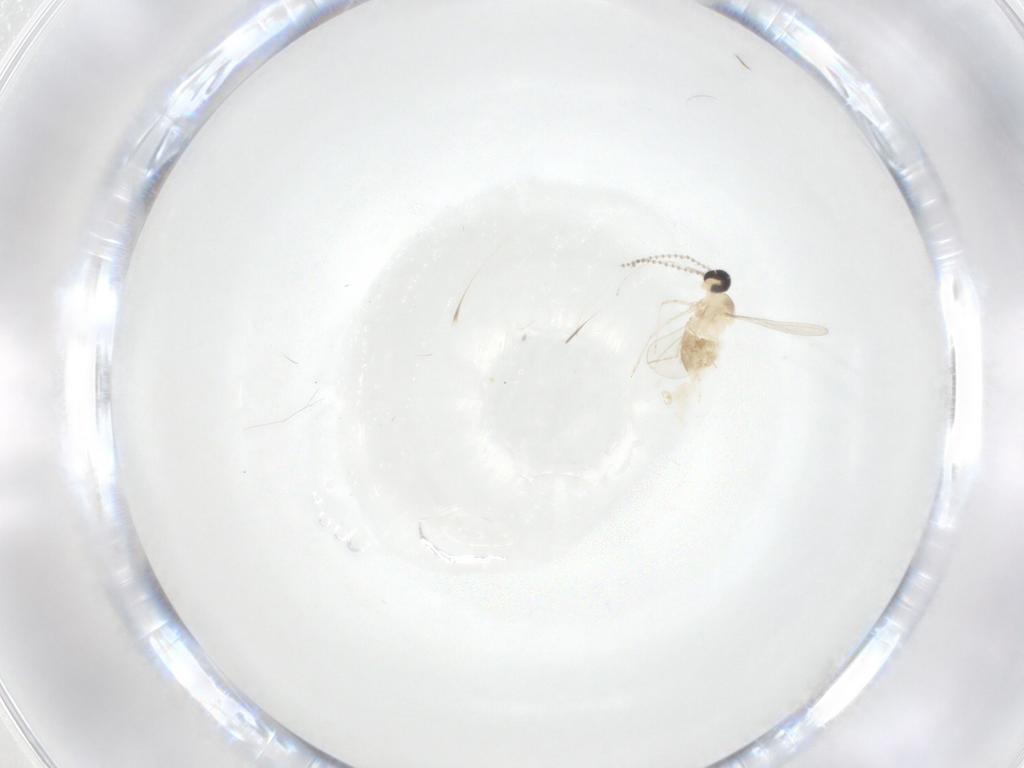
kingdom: Animalia
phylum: Arthropoda
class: Insecta
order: Diptera
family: Cecidomyiidae
